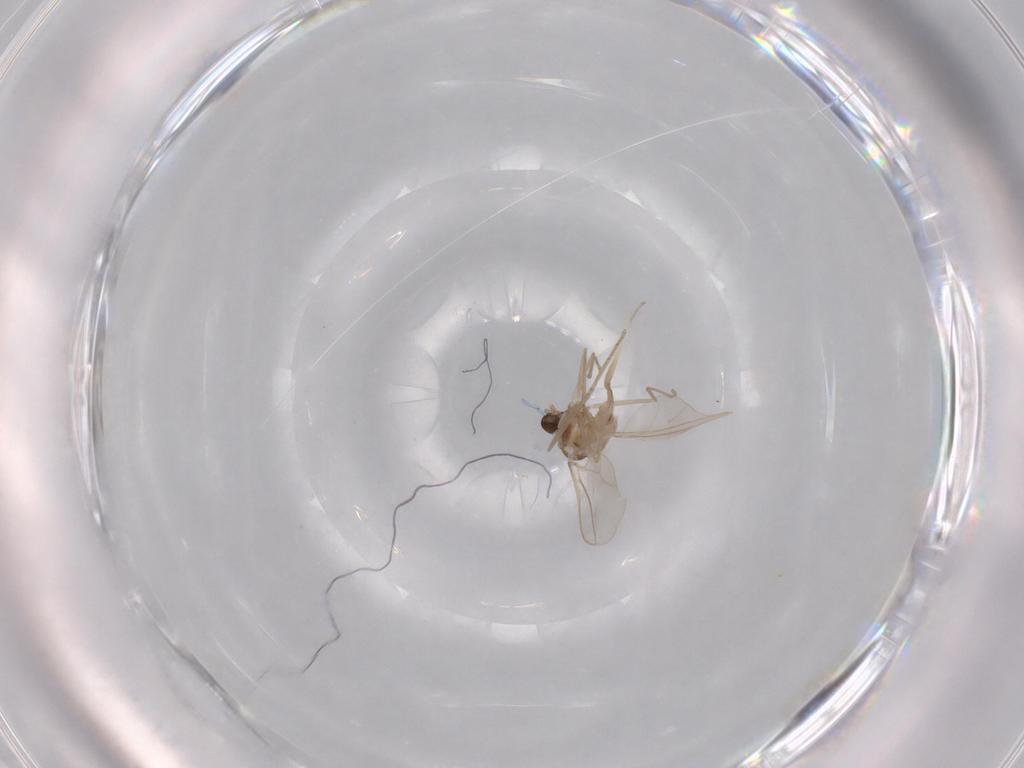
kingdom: Animalia
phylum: Arthropoda
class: Insecta
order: Diptera
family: Cecidomyiidae
